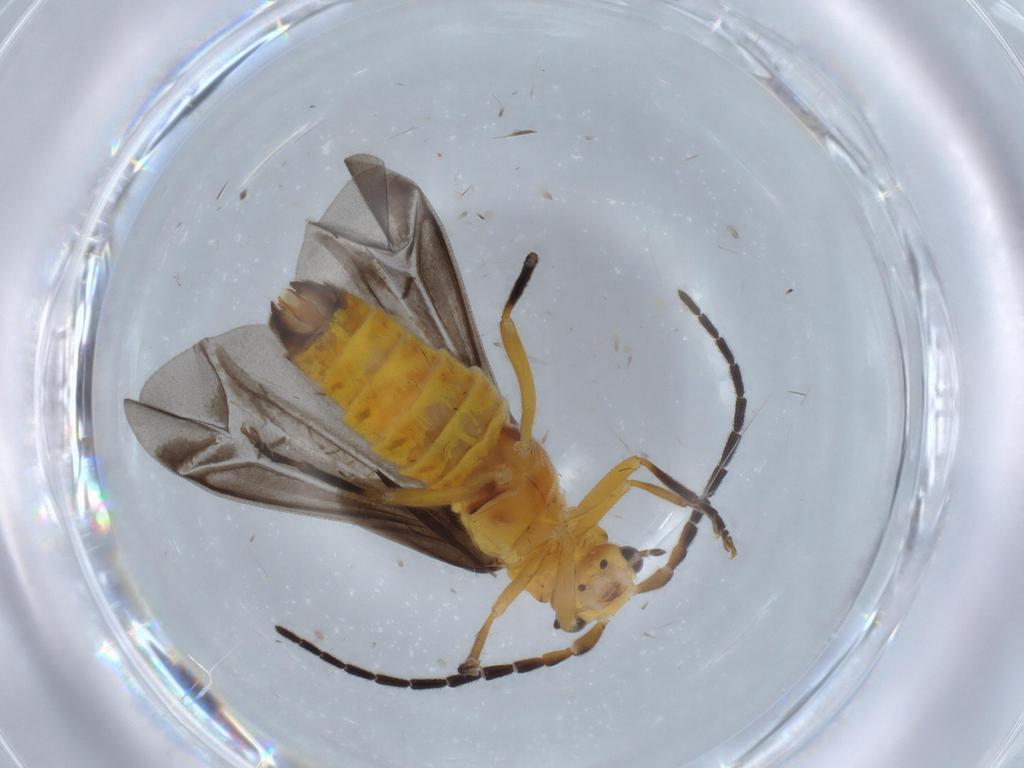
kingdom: Animalia
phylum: Arthropoda
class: Insecta
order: Coleoptera
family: Cantharidae
